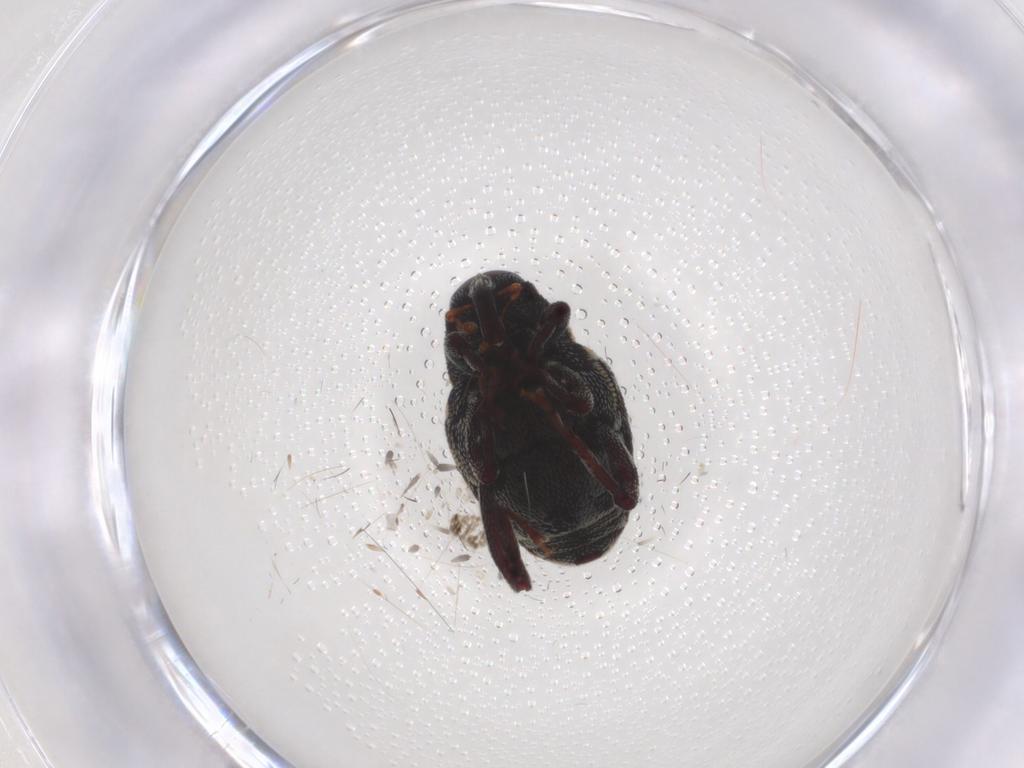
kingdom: Animalia
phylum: Arthropoda
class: Insecta
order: Coleoptera
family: Ptilodactylidae
